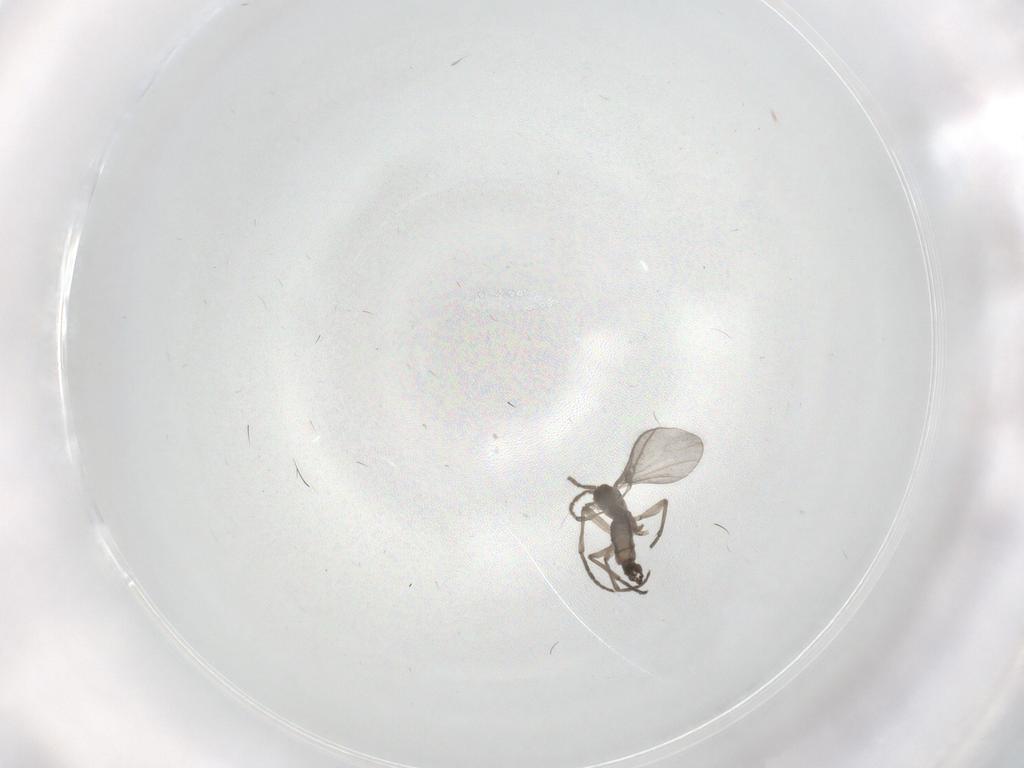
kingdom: Animalia
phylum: Arthropoda
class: Insecta
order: Diptera
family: Sciaridae
